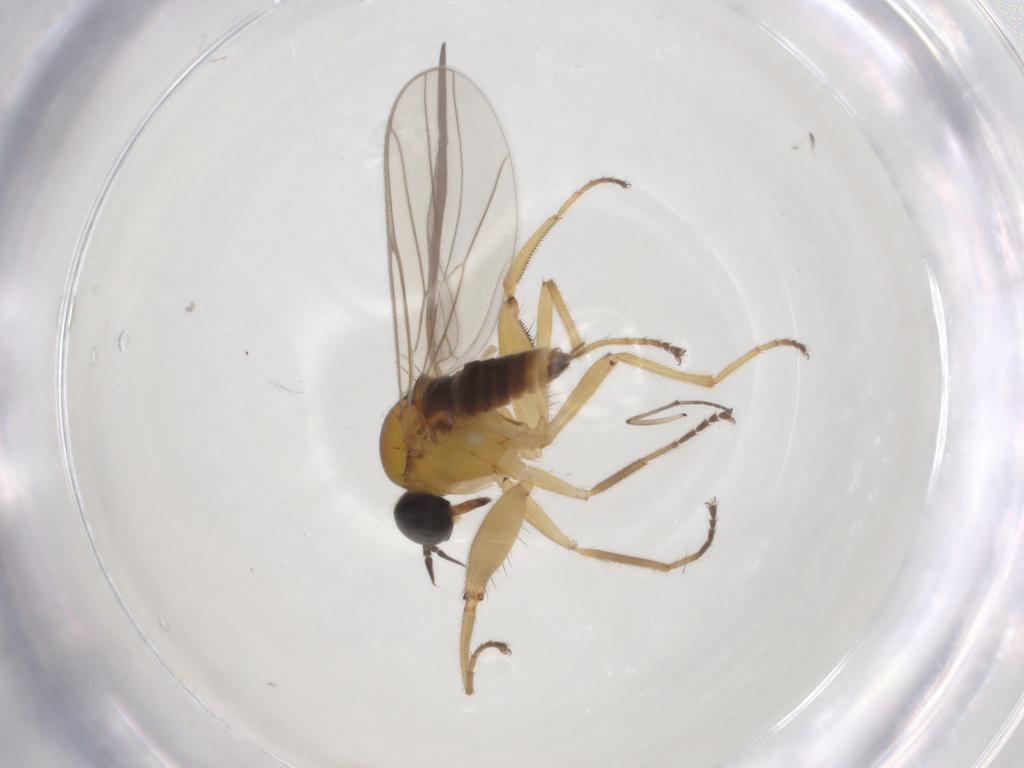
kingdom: Animalia
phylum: Arthropoda
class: Insecta
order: Diptera
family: Hybotidae
